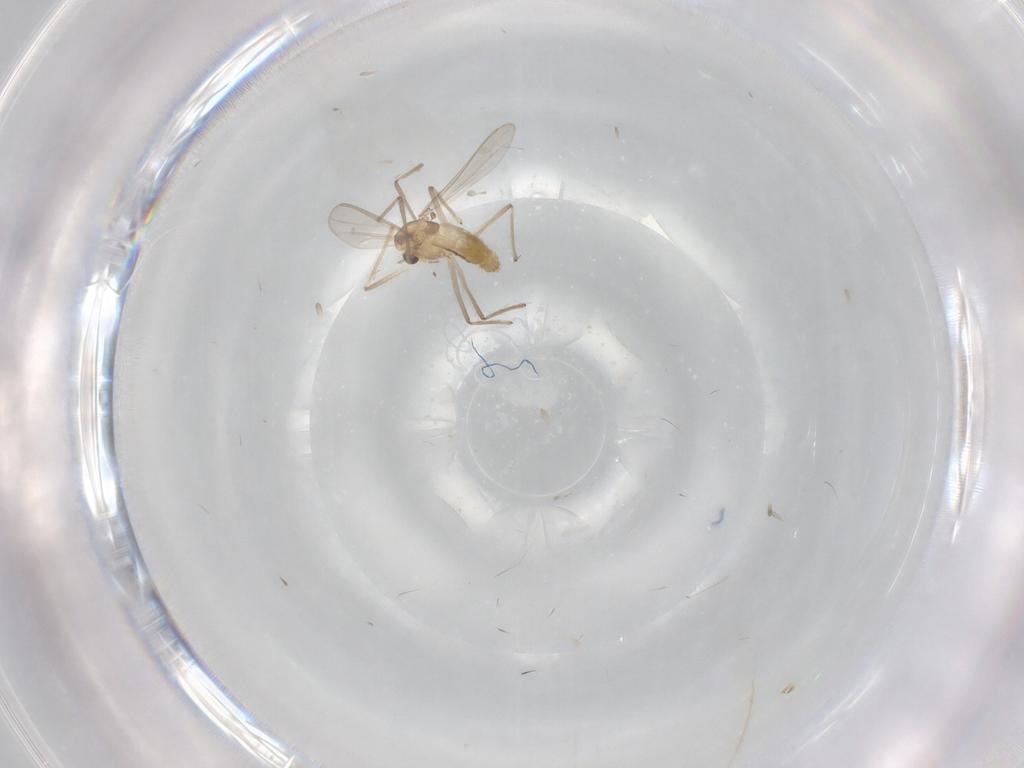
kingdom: Animalia
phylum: Arthropoda
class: Insecta
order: Diptera
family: Chironomidae
